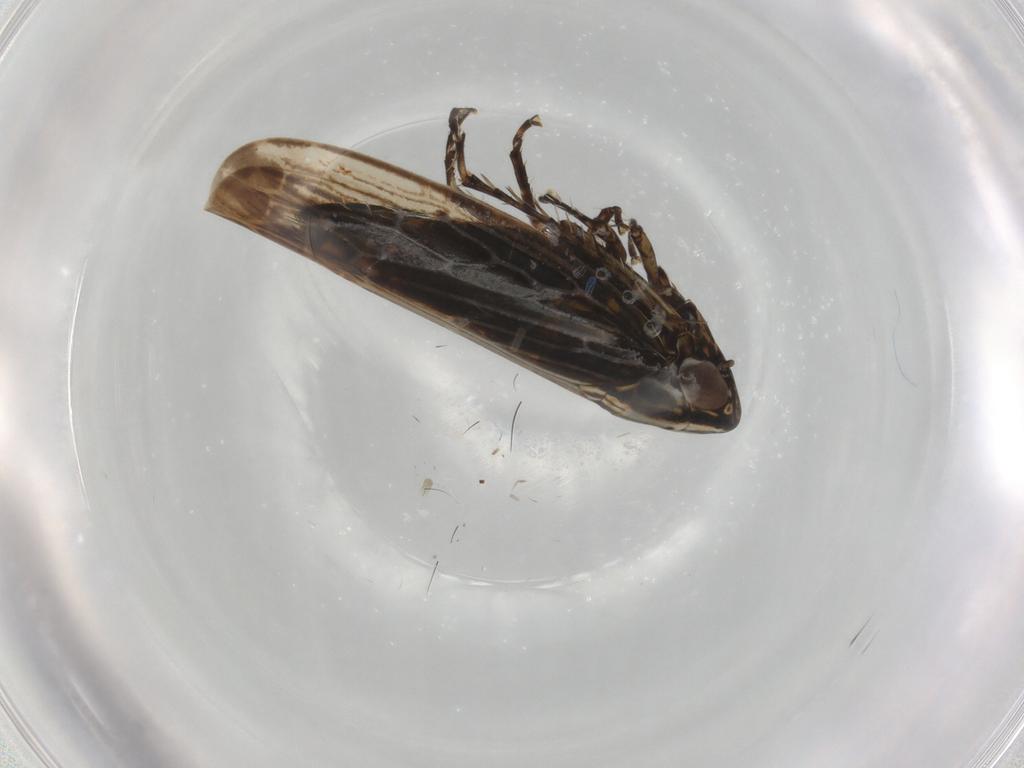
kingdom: Animalia
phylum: Arthropoda
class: Insecta
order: Hemiptera
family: Cicadellidae
